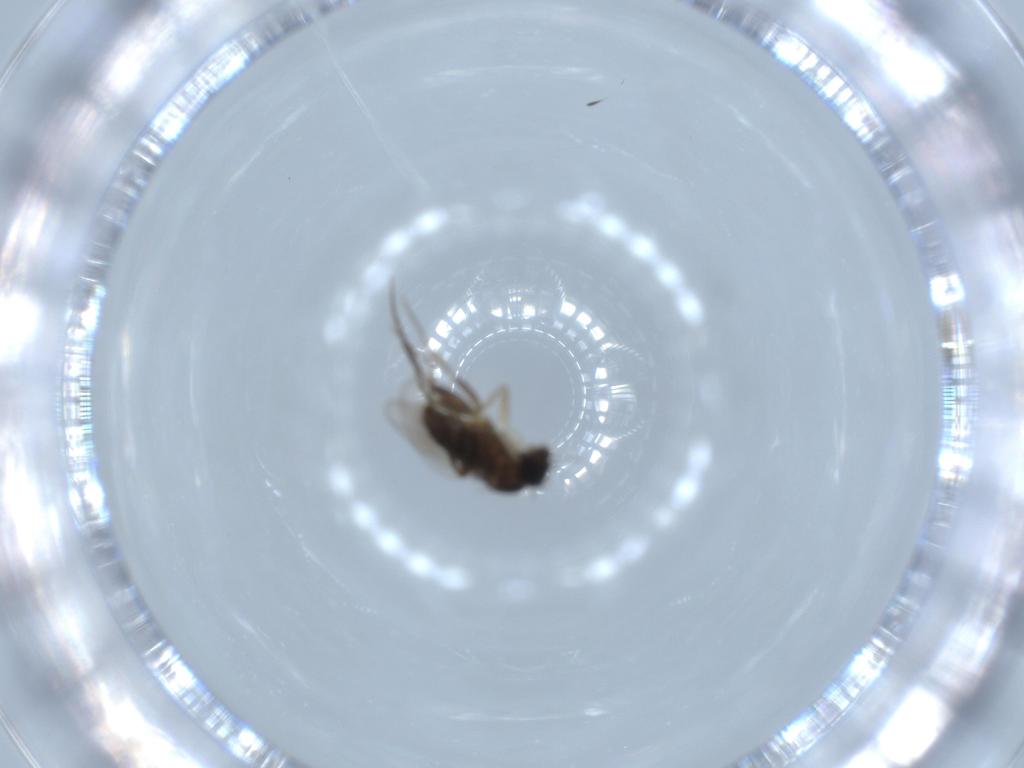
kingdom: Animalia
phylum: Arthropoda
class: Insecta
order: Diptera
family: Phoridae
